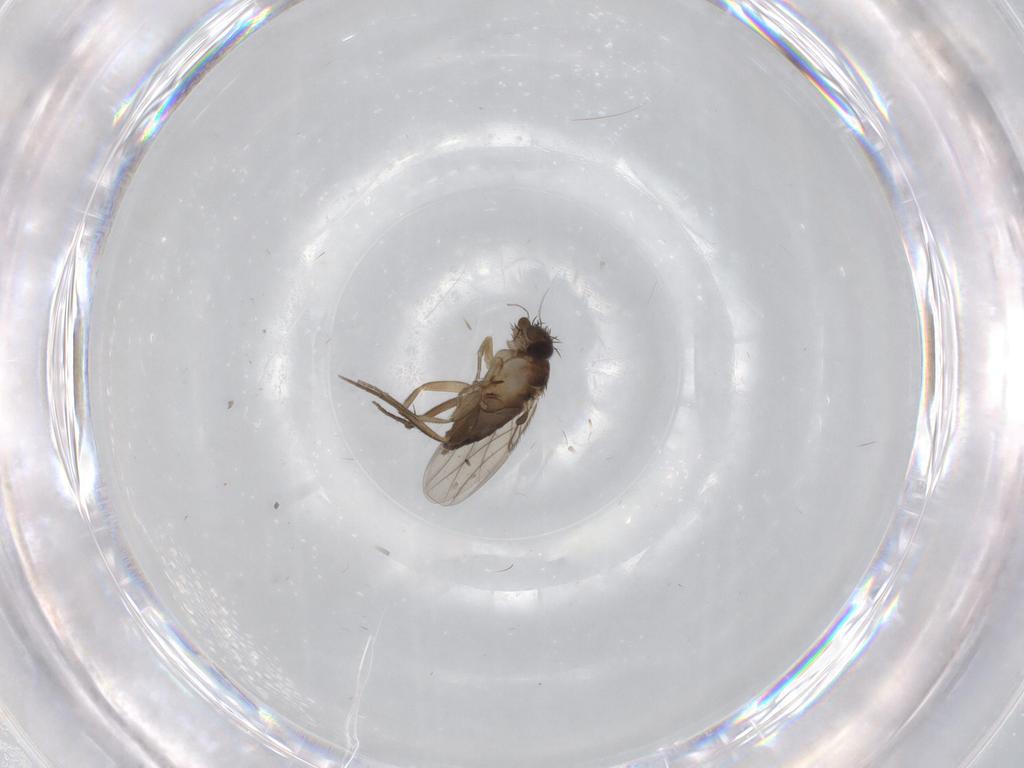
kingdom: Animalia
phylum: Arthropoda
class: Insecta
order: Diptera
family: Phoridae
